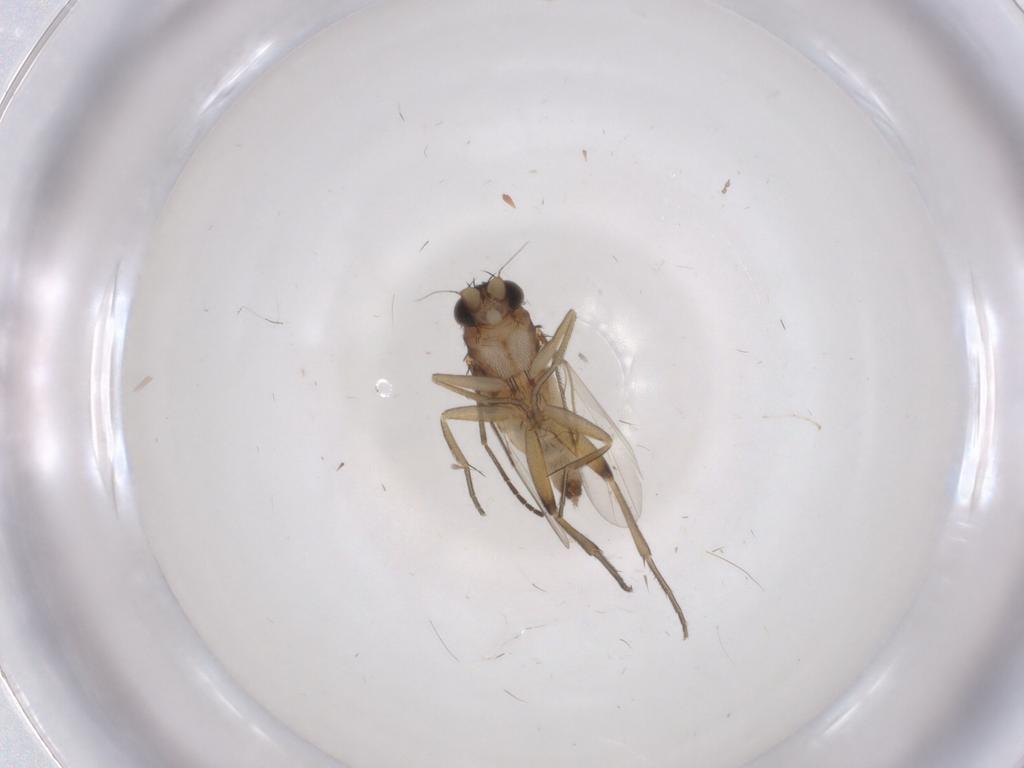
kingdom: Animalia
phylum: Arthropoda
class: Insecta
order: Diptera
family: Phoridae
